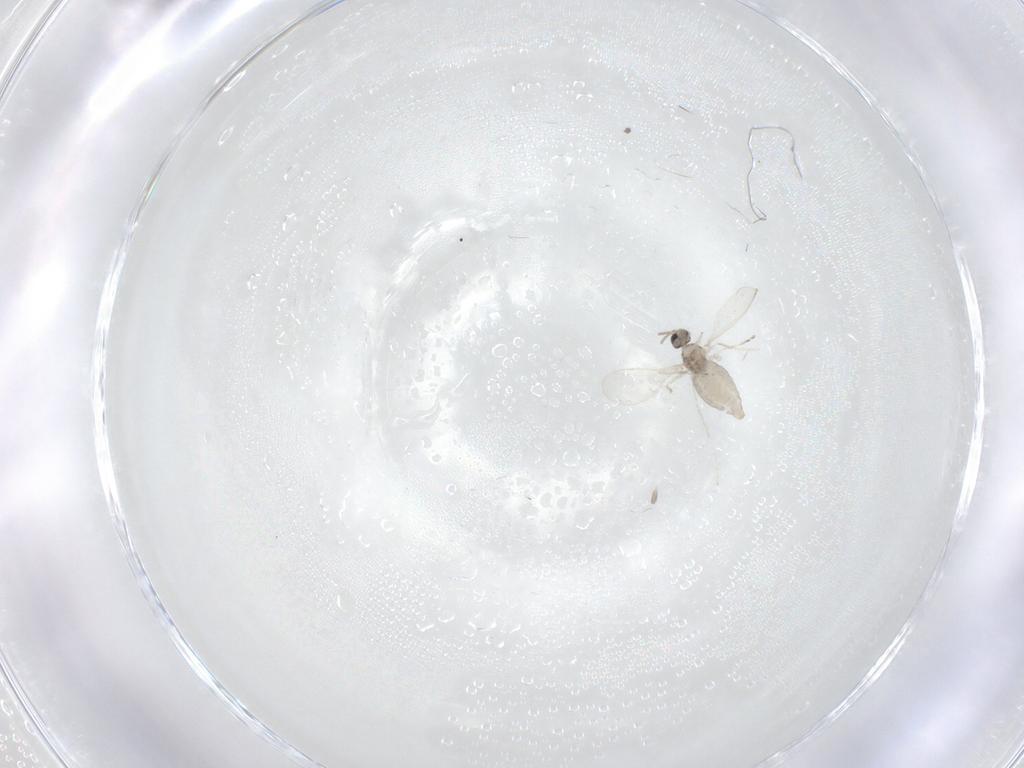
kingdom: Animalia
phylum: Arthropoda
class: Insecta
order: Diptera
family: Cecidomyiidae
